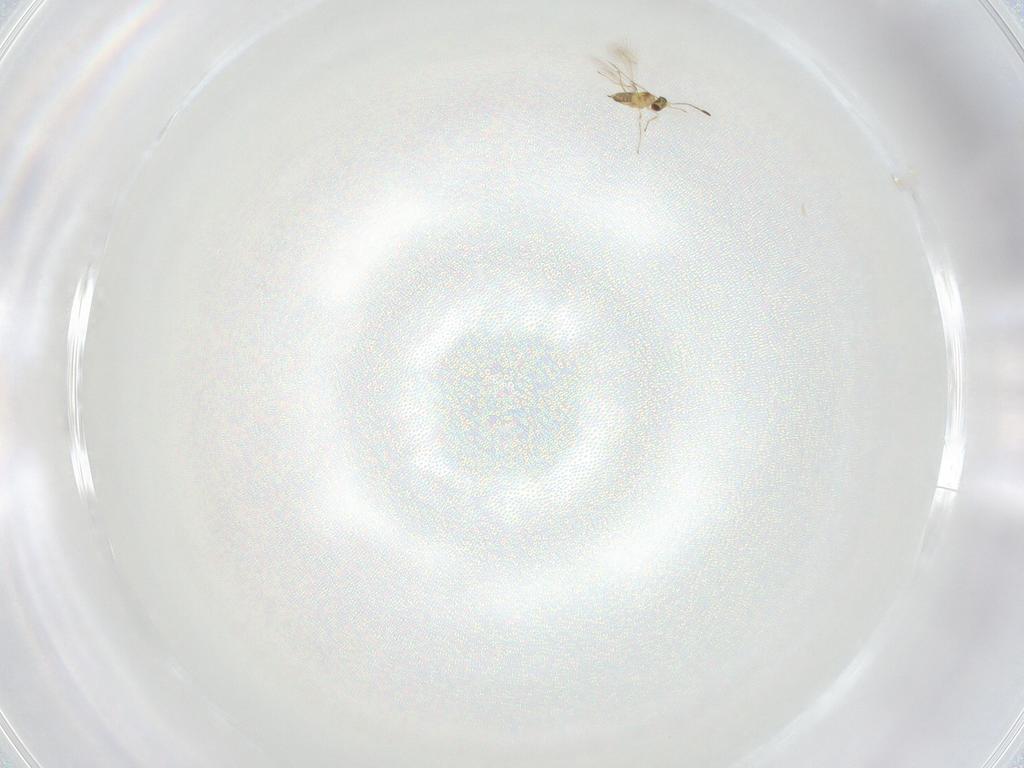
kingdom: Animalia
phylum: Arthropoda
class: Insecta
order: Hymenoptera
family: Mymaridae
